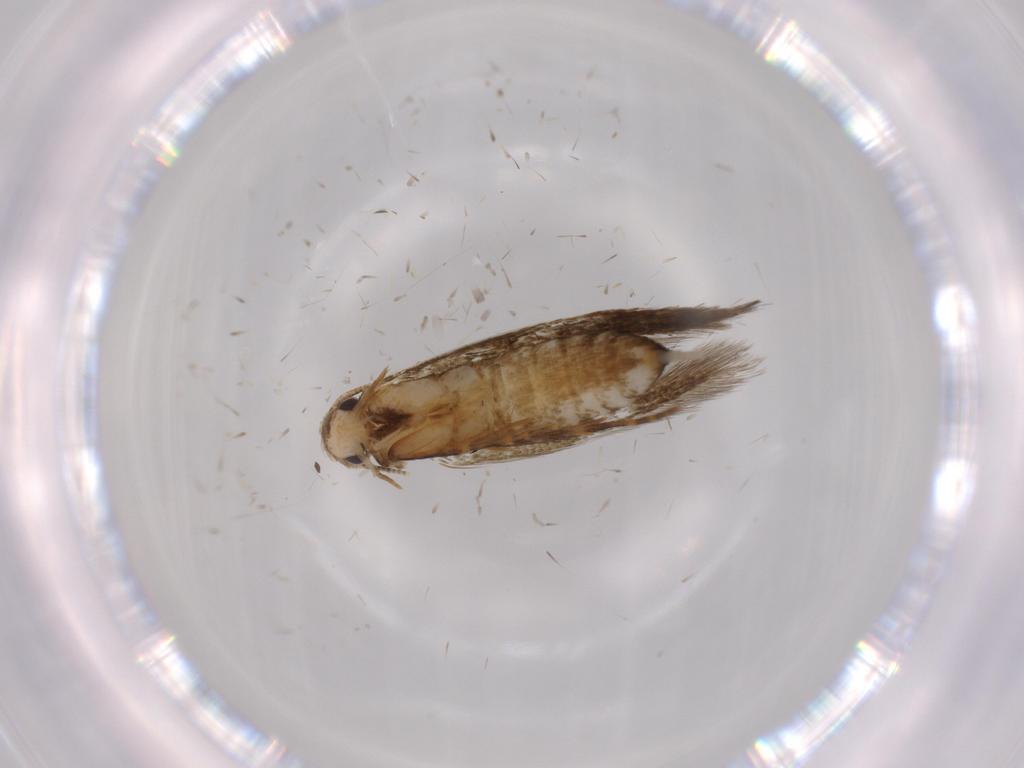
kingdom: Animalia
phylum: Arthropoda
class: Insecta
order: Lepidoptera
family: Tineidae
